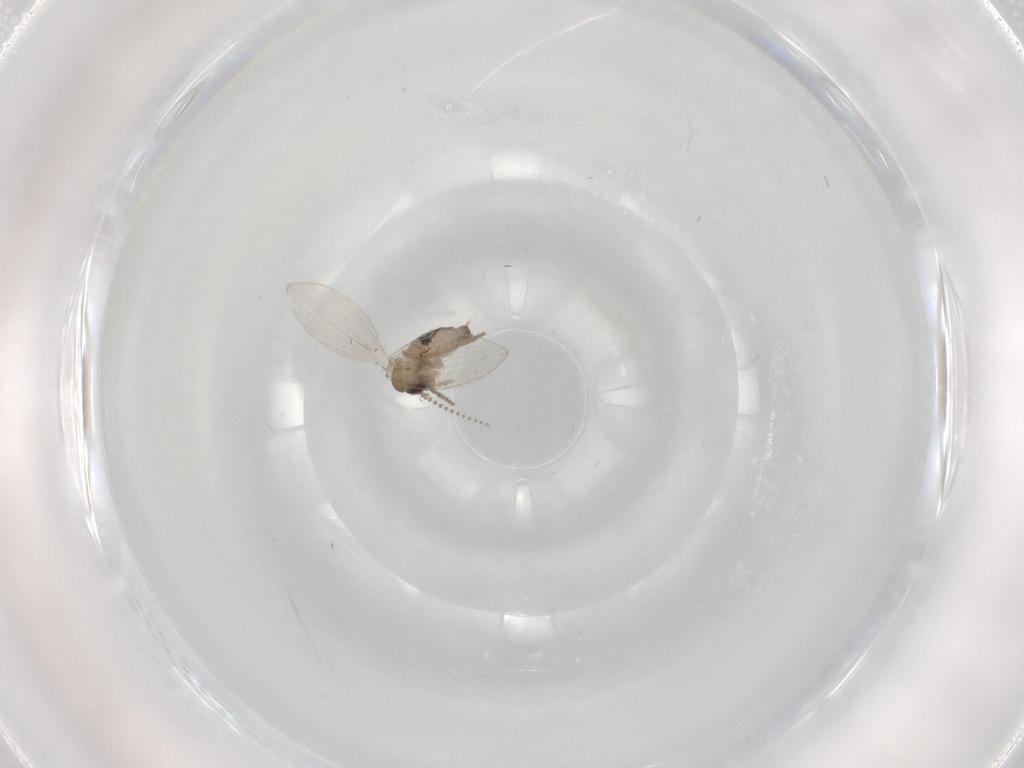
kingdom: Animalia
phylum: Arthropoda
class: Insecta
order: Diptera
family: Psychodidae
